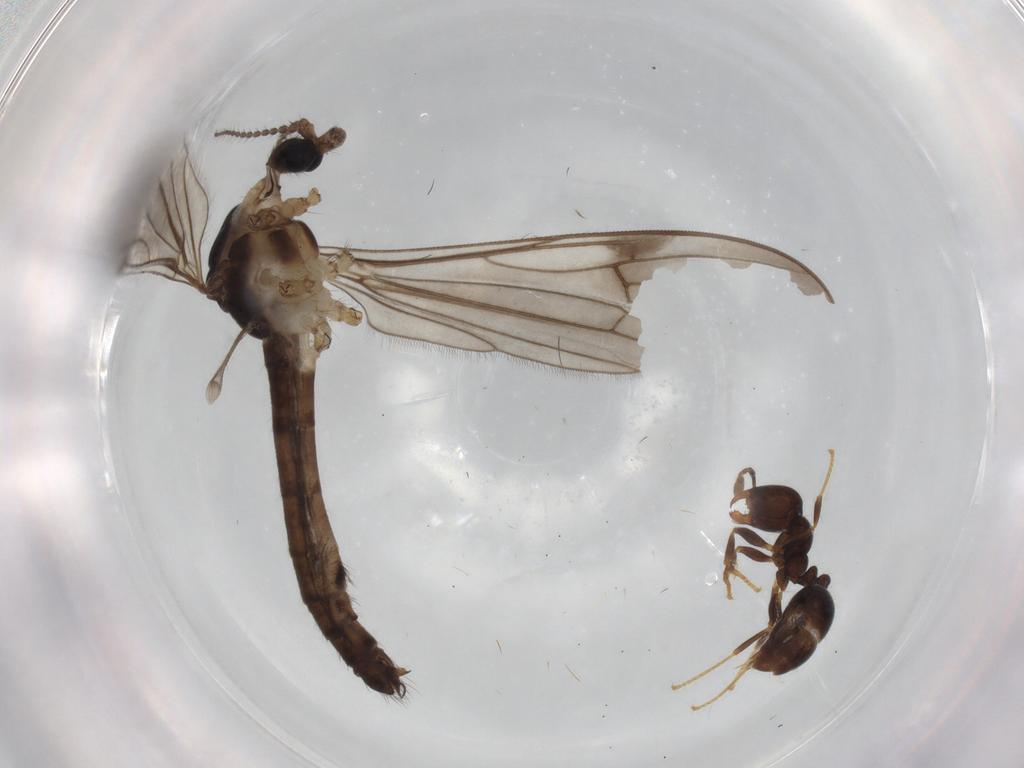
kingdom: Animalia
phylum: Arthropoda
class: Insecta
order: Diptera
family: Psychodidae
